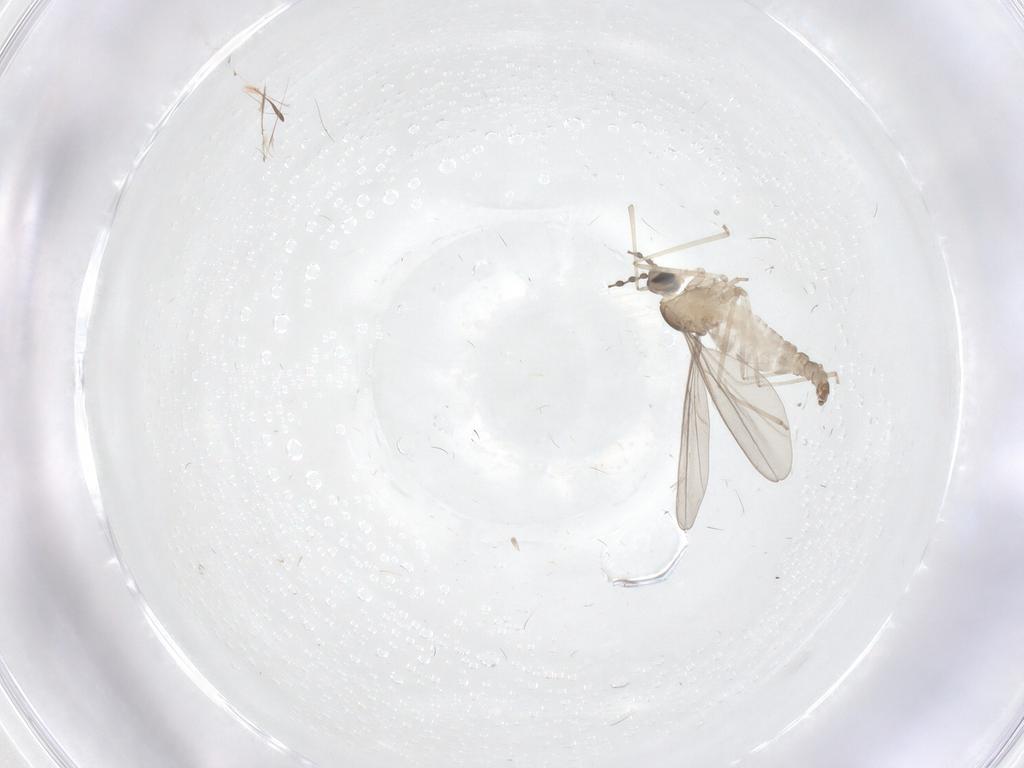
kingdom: Animalia
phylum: Arthropoda
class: Insecta
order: Diptera
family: Cecidomyiidae
